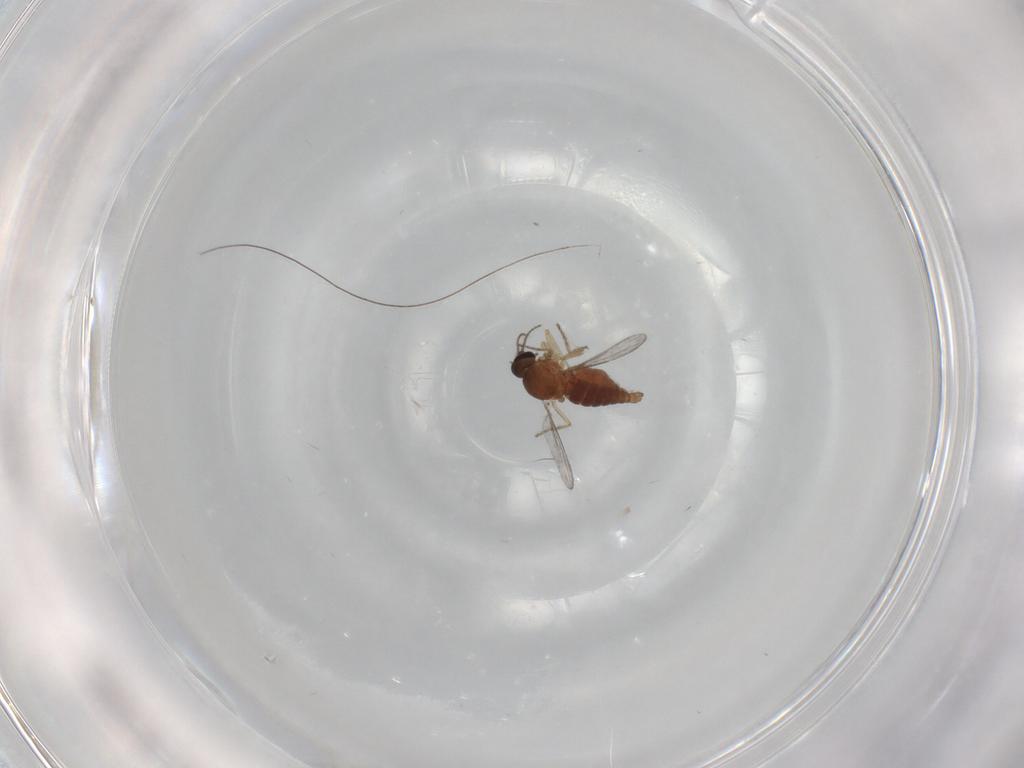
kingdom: Animalia
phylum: Arthropoda
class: Insecta
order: Diptera
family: Ceratopogonidae
